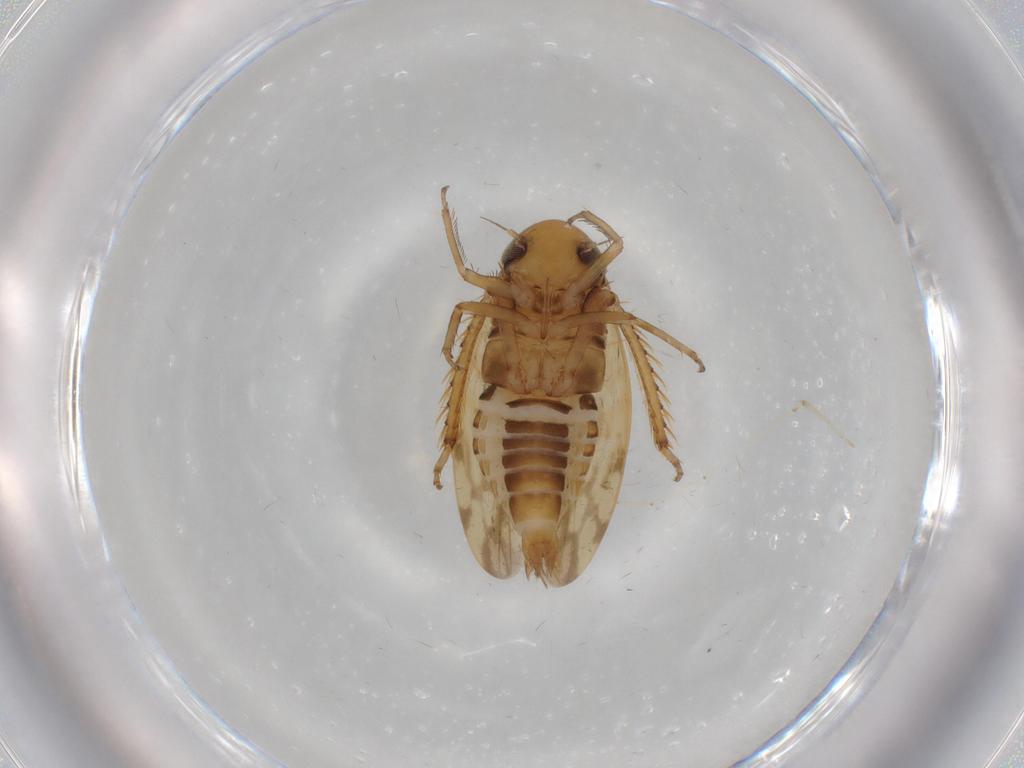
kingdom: Animalia
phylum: Arthropoda
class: Insecta
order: Hemiptera
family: Cicadellidae
